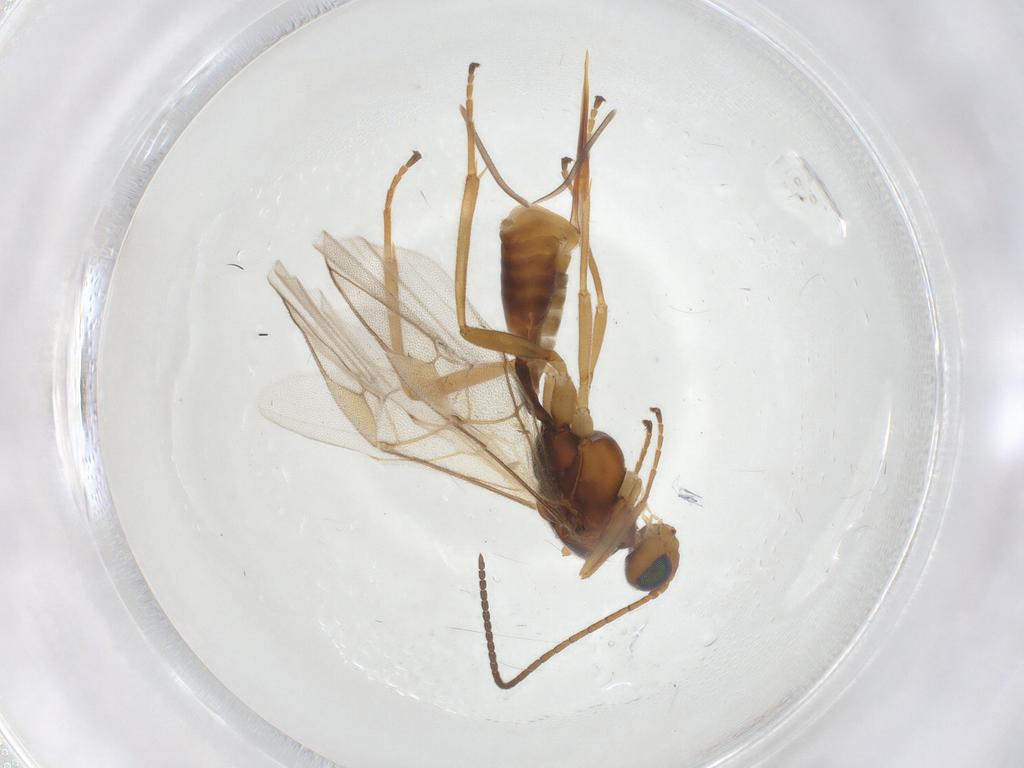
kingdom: Animalia
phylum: Arthropoda
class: Insecta
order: Hymenoptera
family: Braconidae
